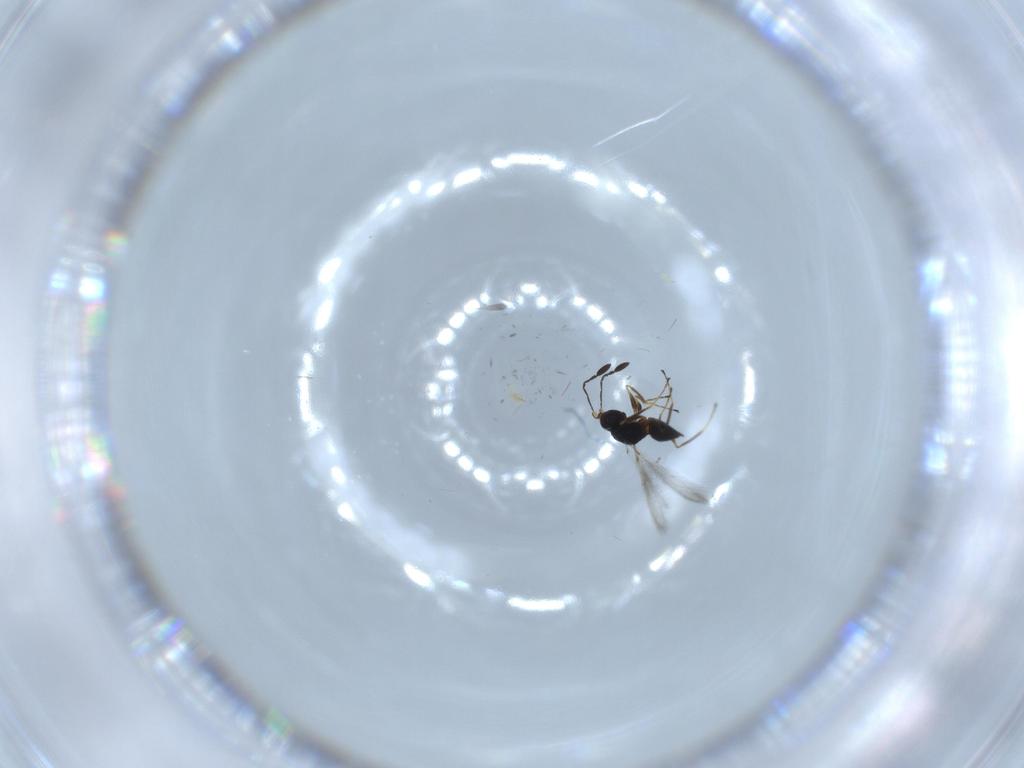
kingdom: Animalia
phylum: Arthropoda
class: Insecta
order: Hymenoptera
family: Mymaridae
